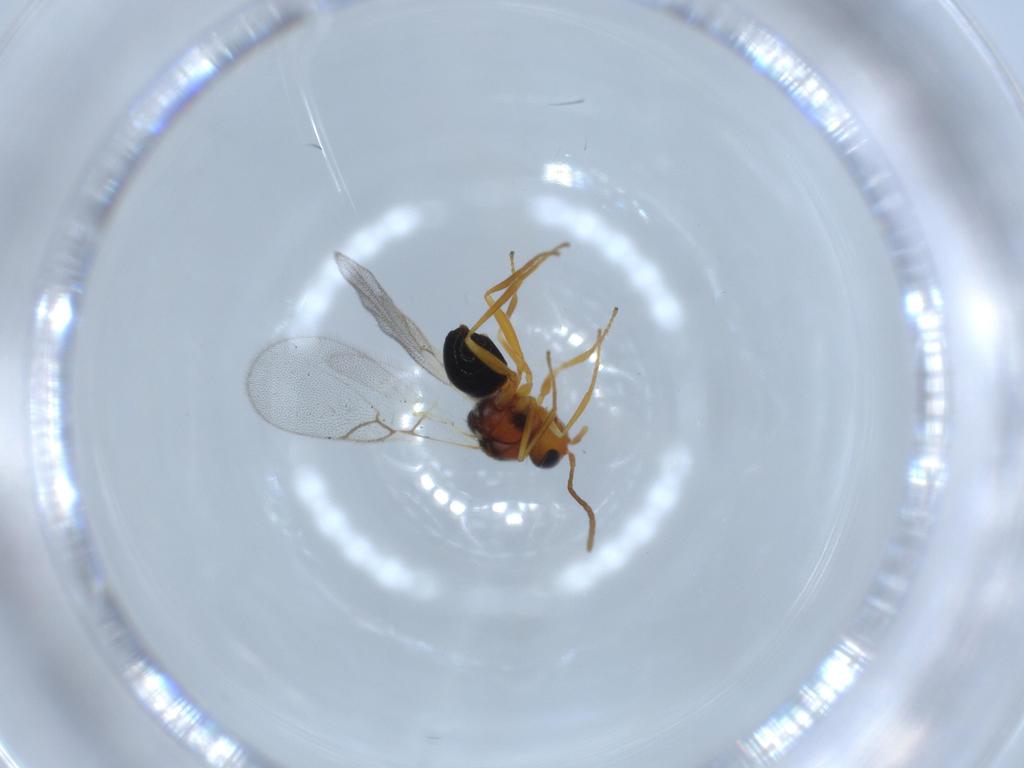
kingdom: Animalia
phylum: Arthropoda
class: Insecta
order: Hymenoptera
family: Figitidae
